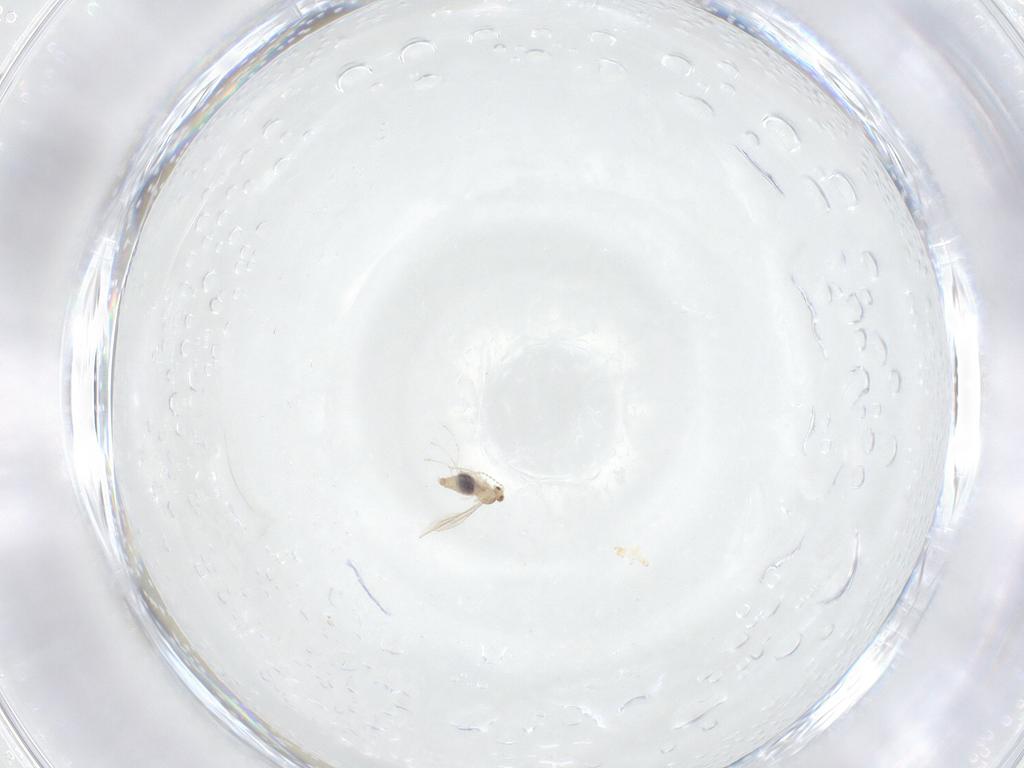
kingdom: Animalia
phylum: Arthropoda
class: Insecta
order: Diptera
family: Cecidomyiidae
